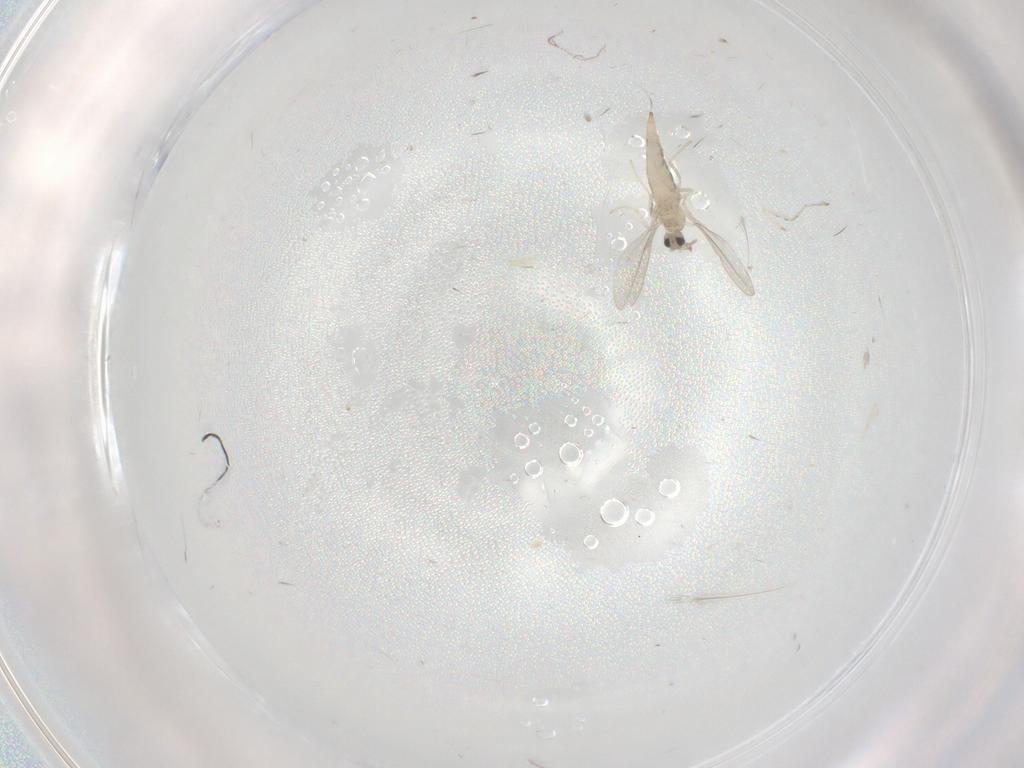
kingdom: Animalia
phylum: Arthropoda
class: Insecta
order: Diptera
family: Cecidomyiidae
